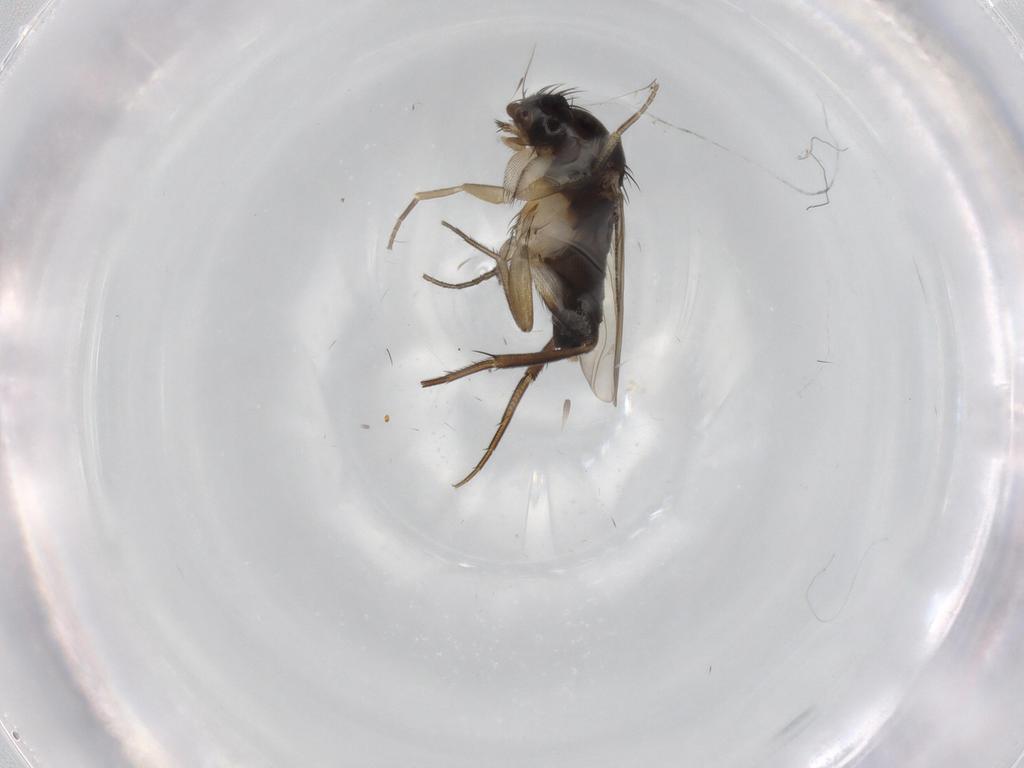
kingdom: Animalia
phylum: Arthropoda
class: Insecta
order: Diptera
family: Phoridae
